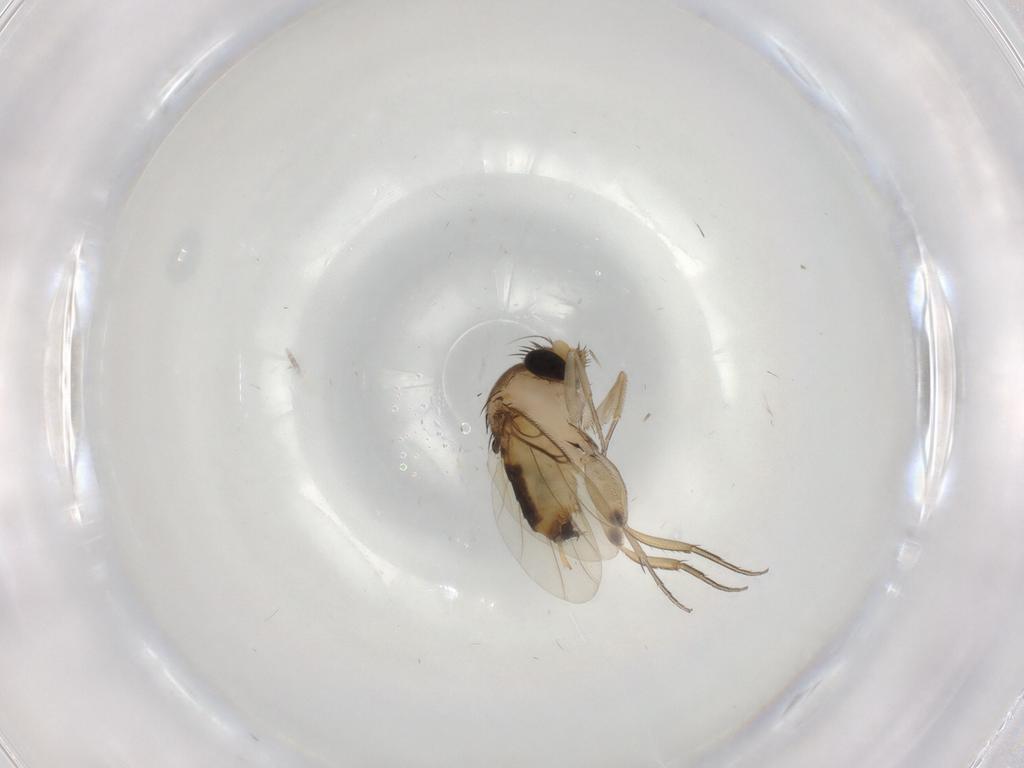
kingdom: Animalia
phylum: Arthropoda
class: Insecta
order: Diptera
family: Phoridae
